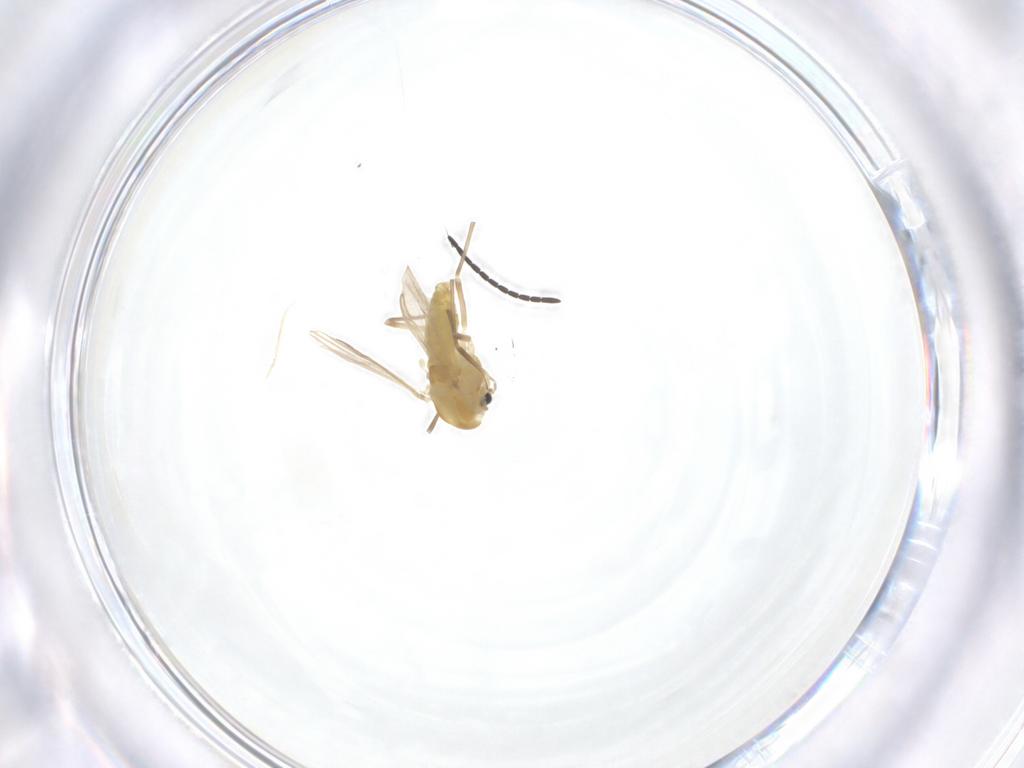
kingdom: Animalia
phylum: Arthropoda
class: Insecta
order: Diptera
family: Chironomidae
